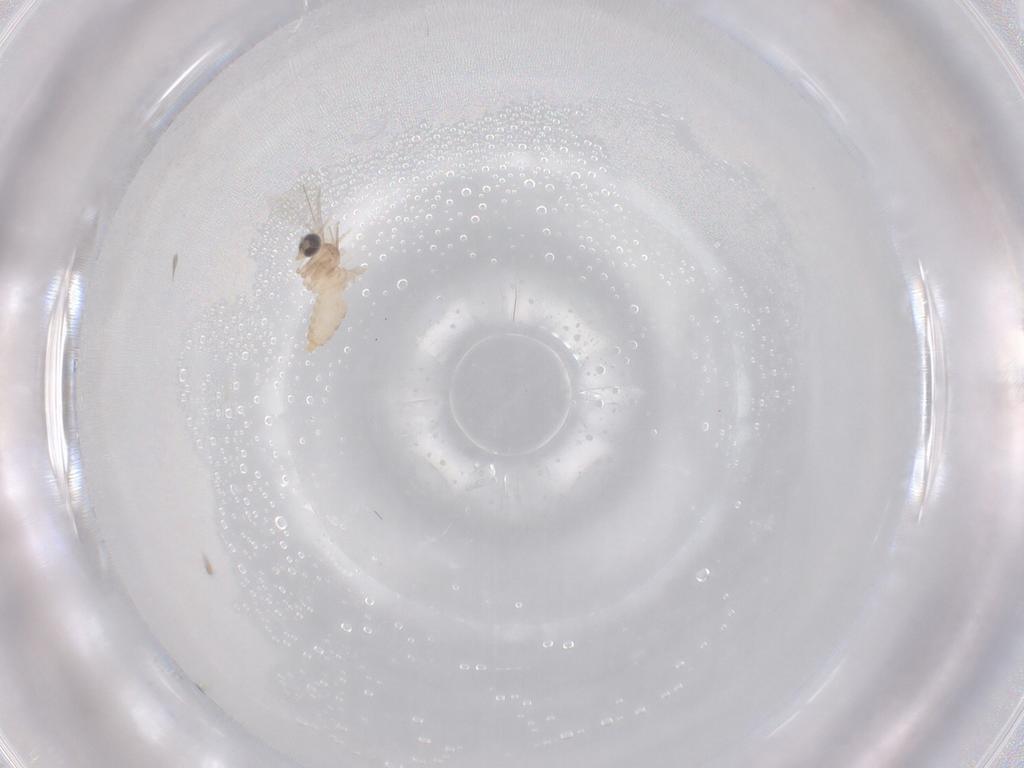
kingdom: Animalia
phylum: Arthropoda
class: Insecta
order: Diptera
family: Cecidomyiidae
